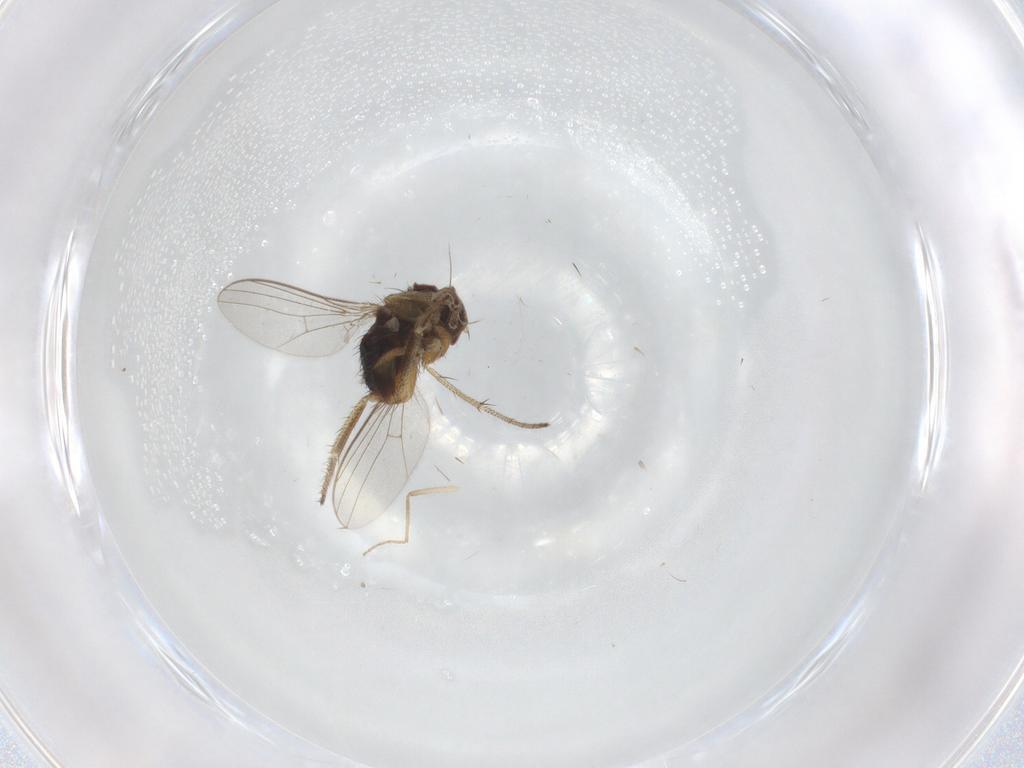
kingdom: Animalia
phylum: Arthropoda
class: Insecta
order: Diptera
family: Dolichopodidae
